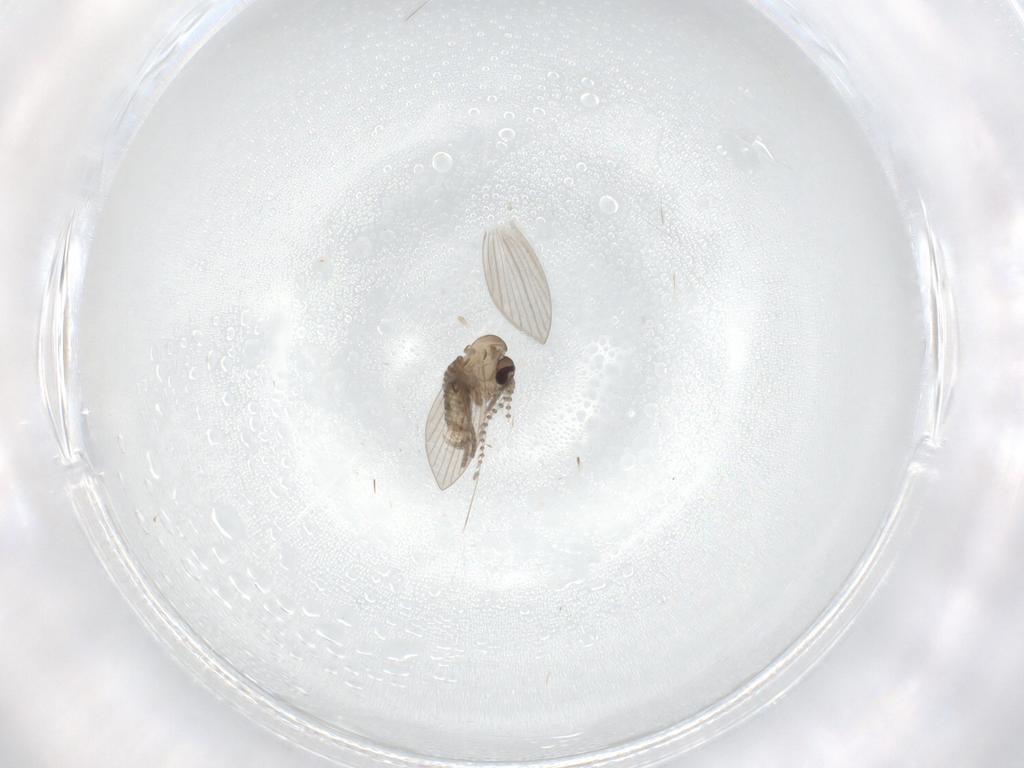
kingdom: Animalia
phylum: Arthropoda
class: Insecta
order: Diptera
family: Psychodidae
